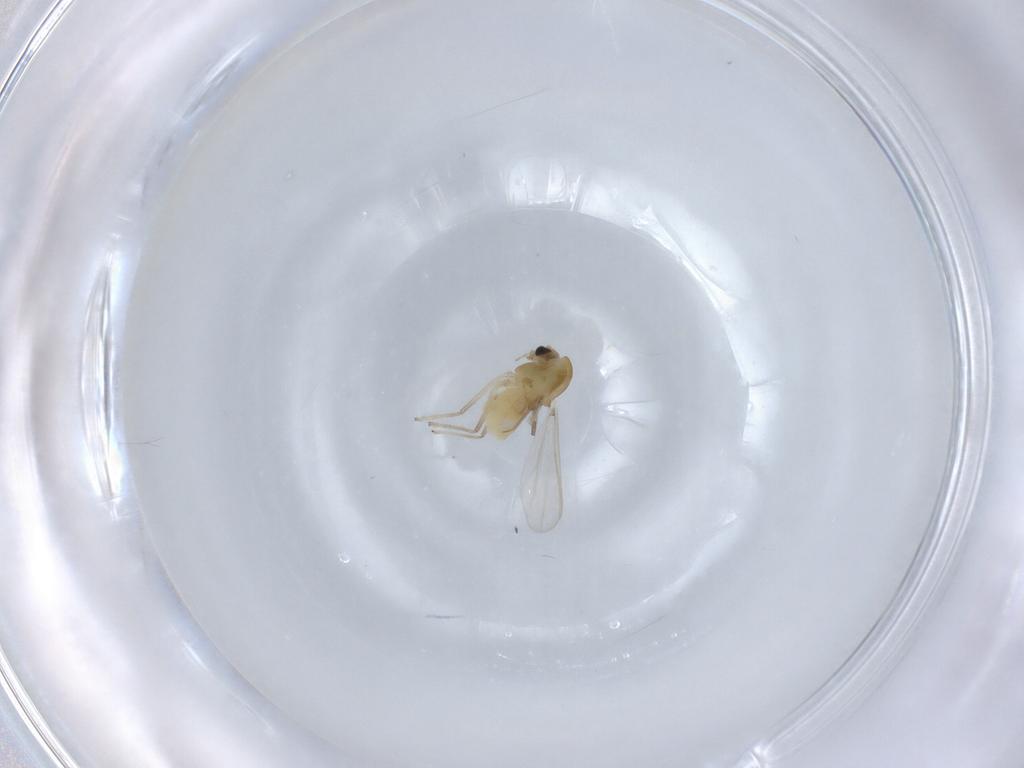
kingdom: Animalia
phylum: Arthropoda
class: Insecta
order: Diptera
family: Chironomidae
